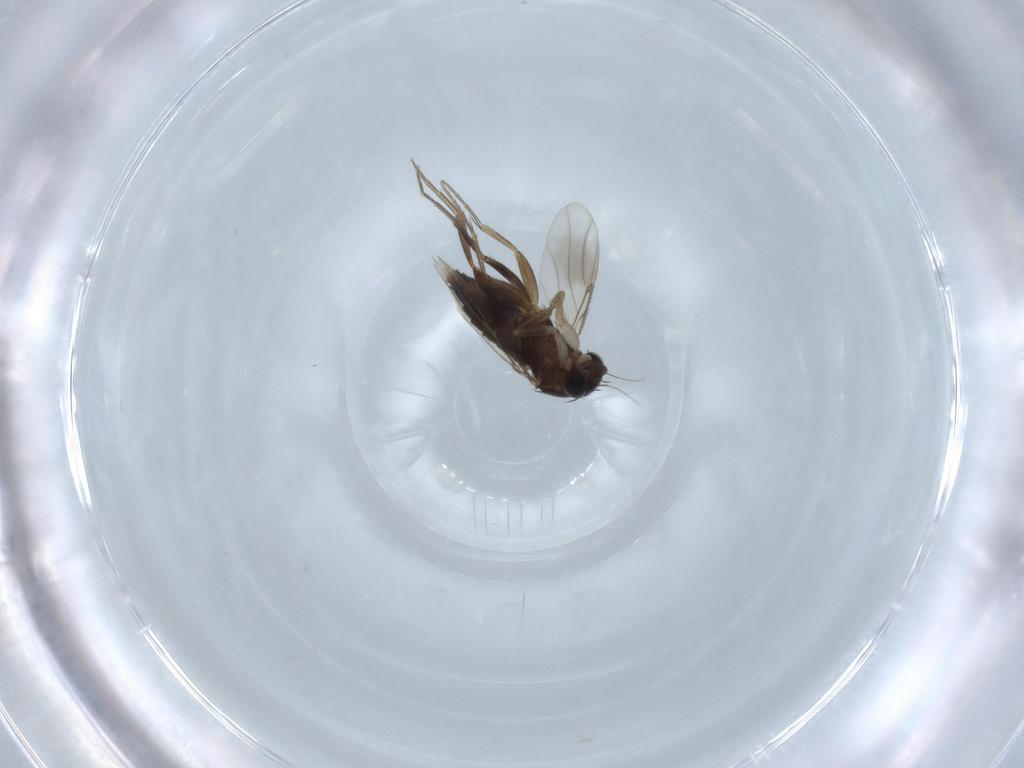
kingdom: Animalia
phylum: Arthropoda
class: Insecta
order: Diptera
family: Phoridae
